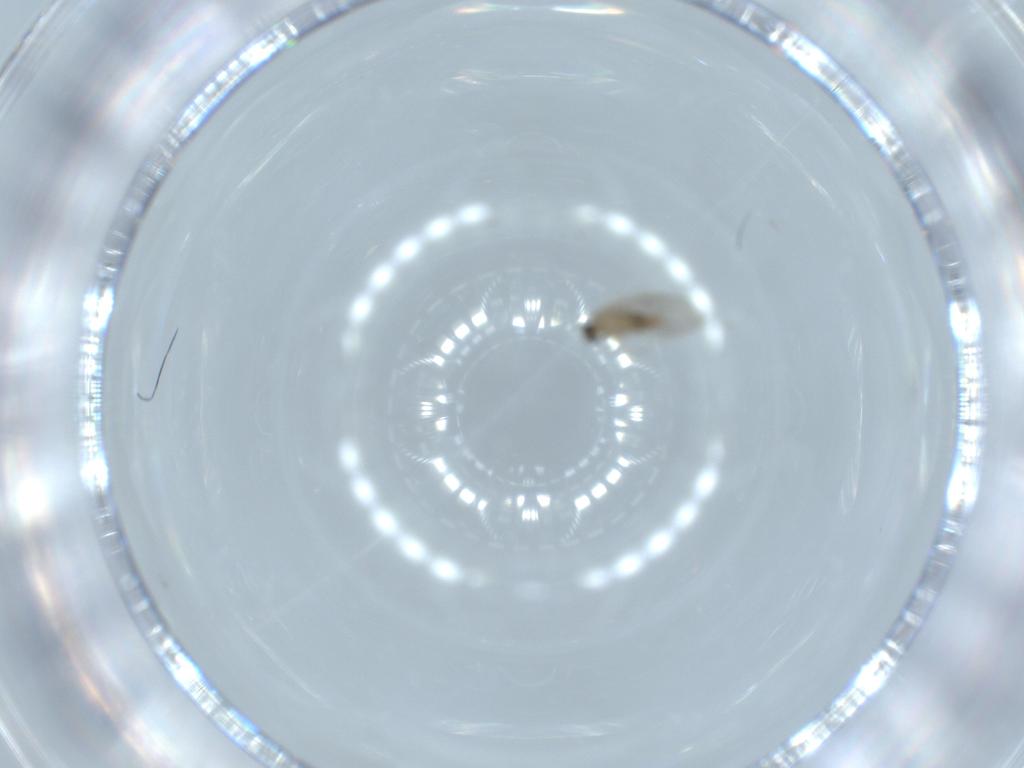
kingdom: Animalia
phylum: Arthropoda
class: Insecta
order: Diptera
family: Cecidomyiidae
